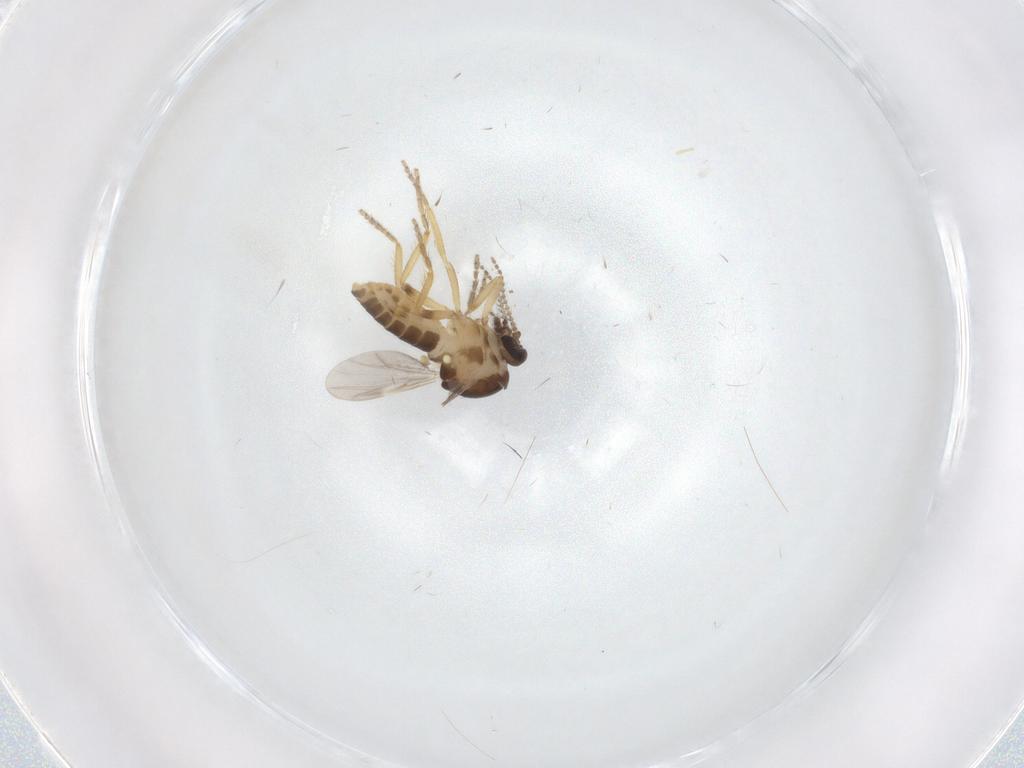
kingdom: Animalia
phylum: Arthropoda
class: Insecta
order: Diptera
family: Ceratopogonidae
